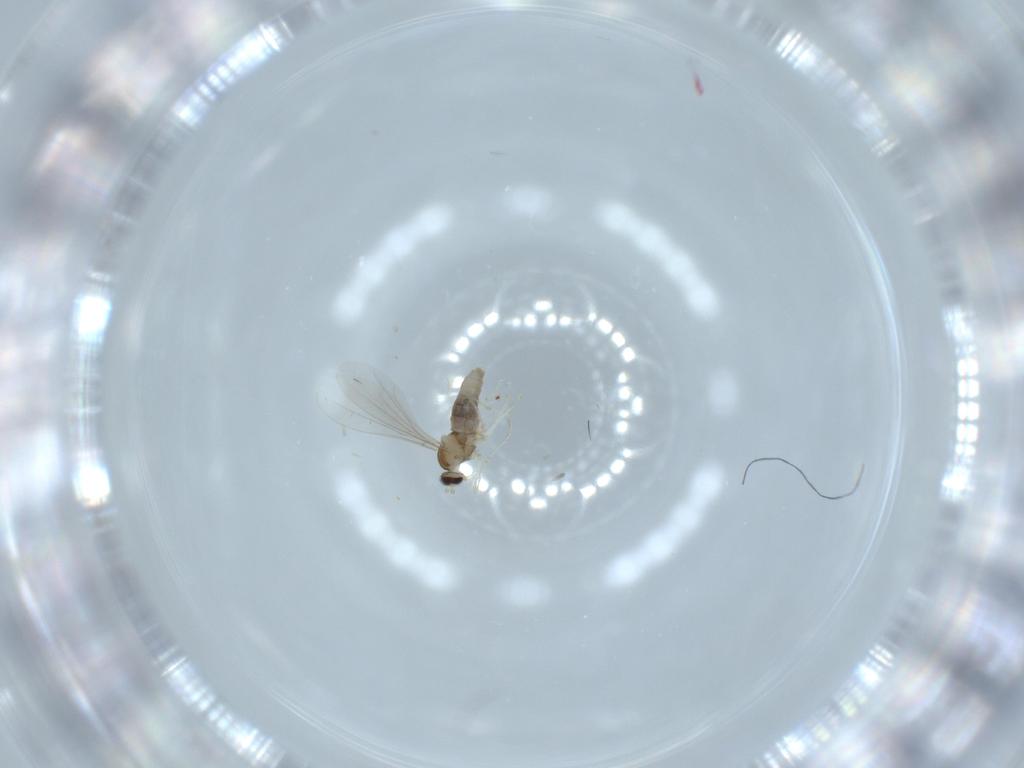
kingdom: Animalia
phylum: Arthropoda
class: Insecta
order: Diptera
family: Cecidomyiidae
